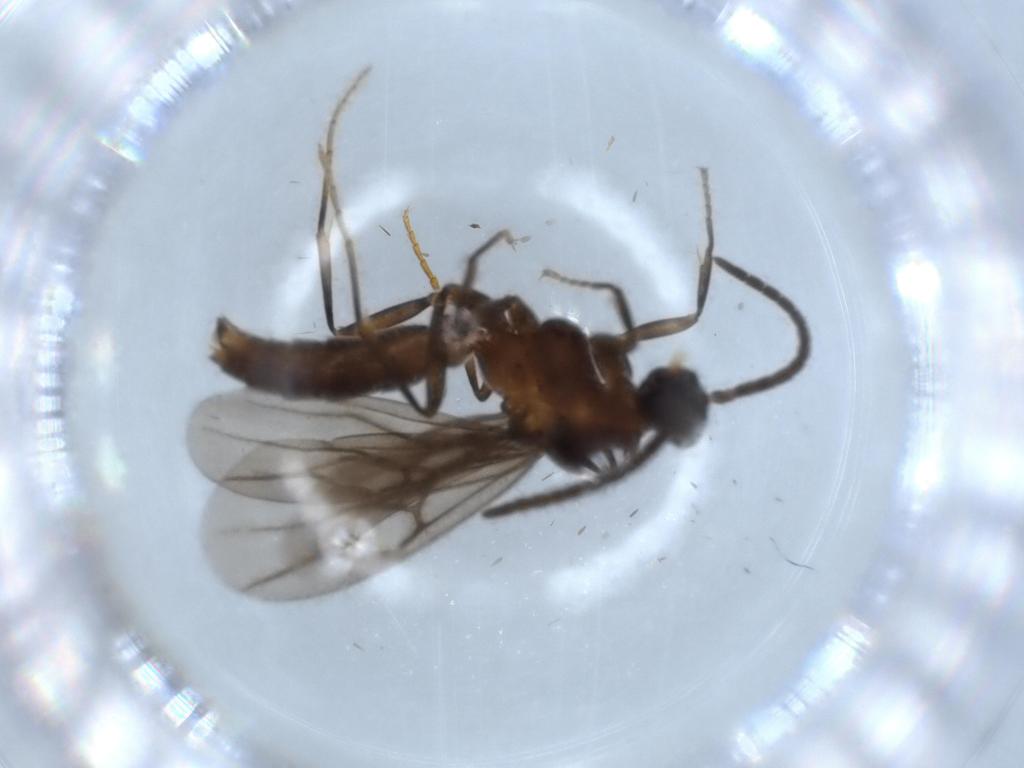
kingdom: Animalia
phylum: Arthropoda
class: Insecta
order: Hymenoptera
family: Formicidae
